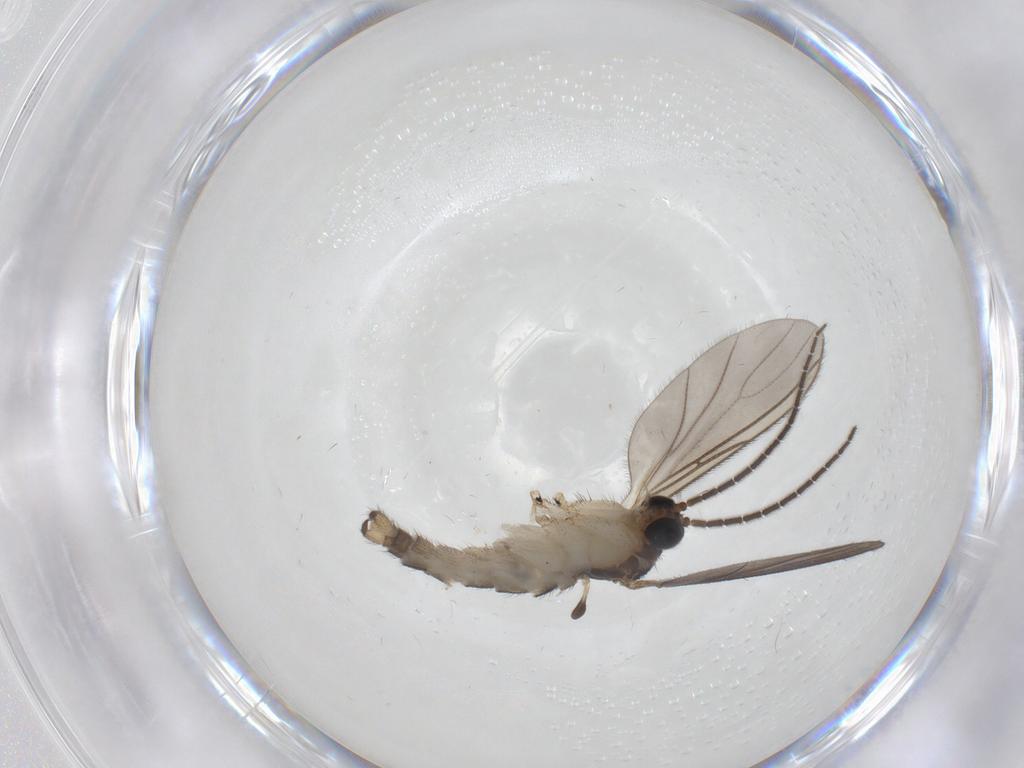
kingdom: Animalia
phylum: Arthropoda
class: Insecta
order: Diptera
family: Sciaridae
